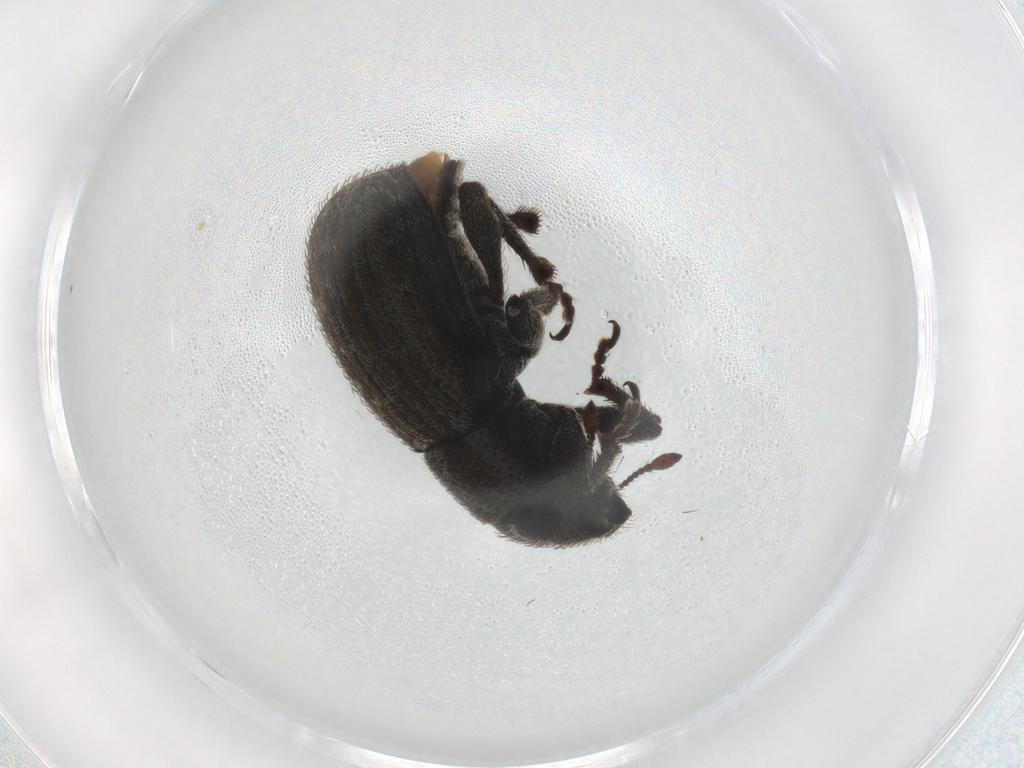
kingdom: Animalia
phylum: Arthropoda
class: Insecta
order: Coleoptera
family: Curculionidae
